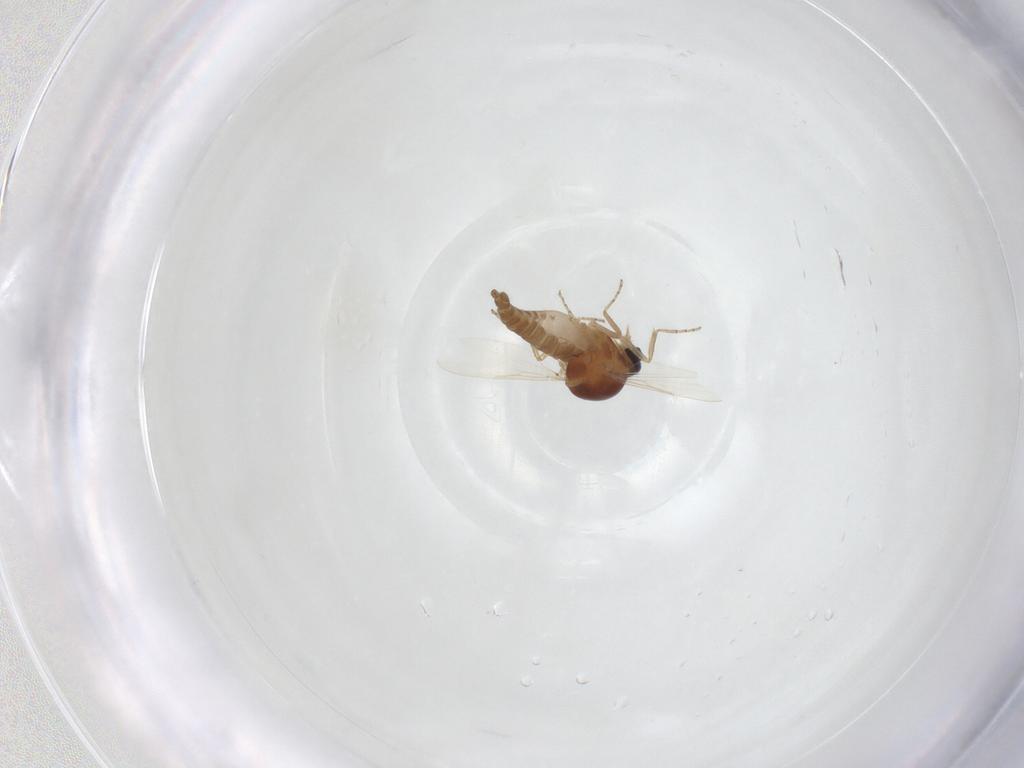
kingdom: Animalia
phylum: Arthropoda
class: Insecta
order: Diptera
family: Ceratopogonidae
